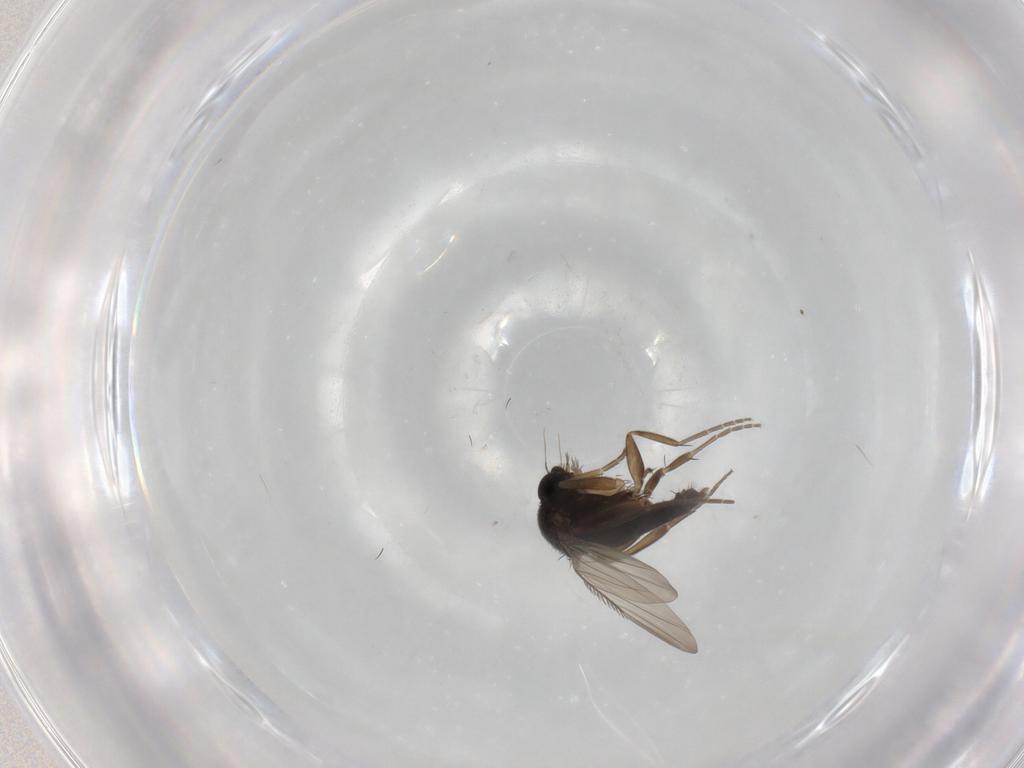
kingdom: Animalia
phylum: Arthropoda
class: Insecta
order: Diptera
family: Phoridae
